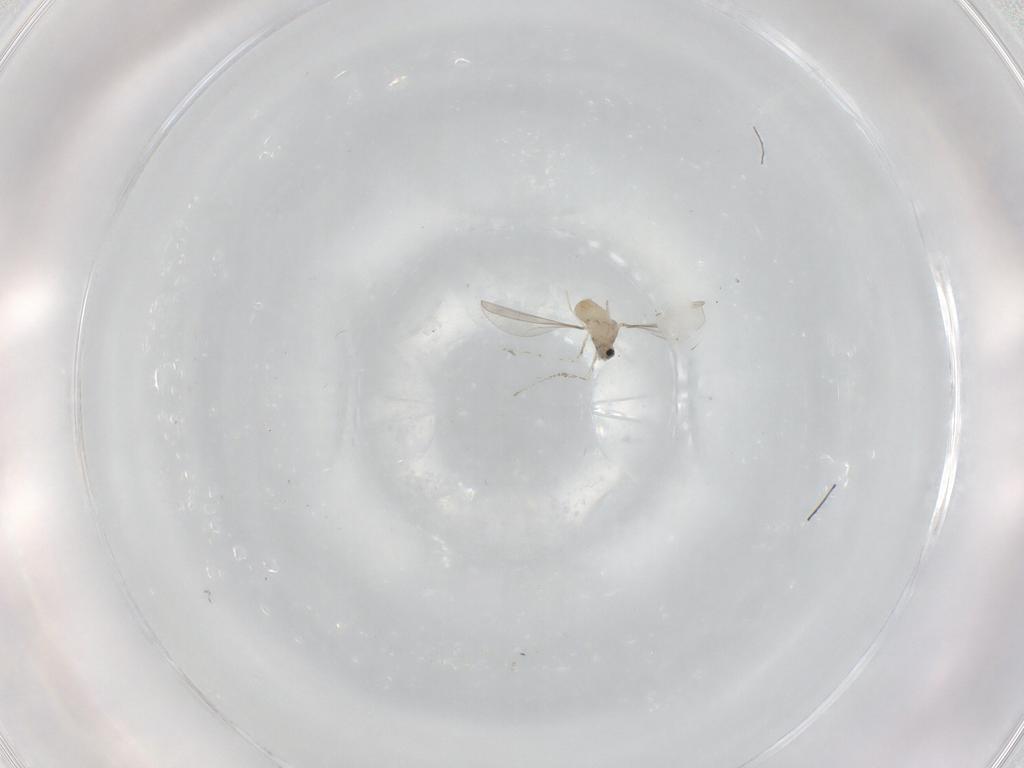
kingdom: Animalia
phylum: Arthropoda
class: Insecta
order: Diptera
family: Cecidomyiidae
